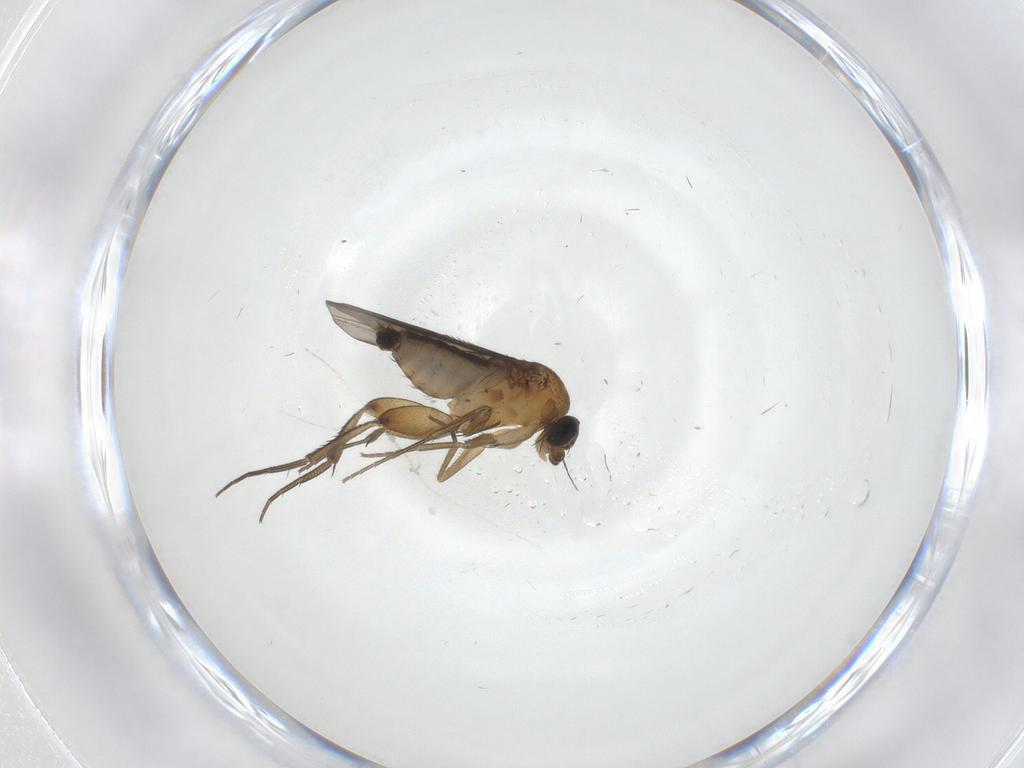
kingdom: Animalia
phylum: Arthropoda
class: Insecta
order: Diptera
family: Phoridae
